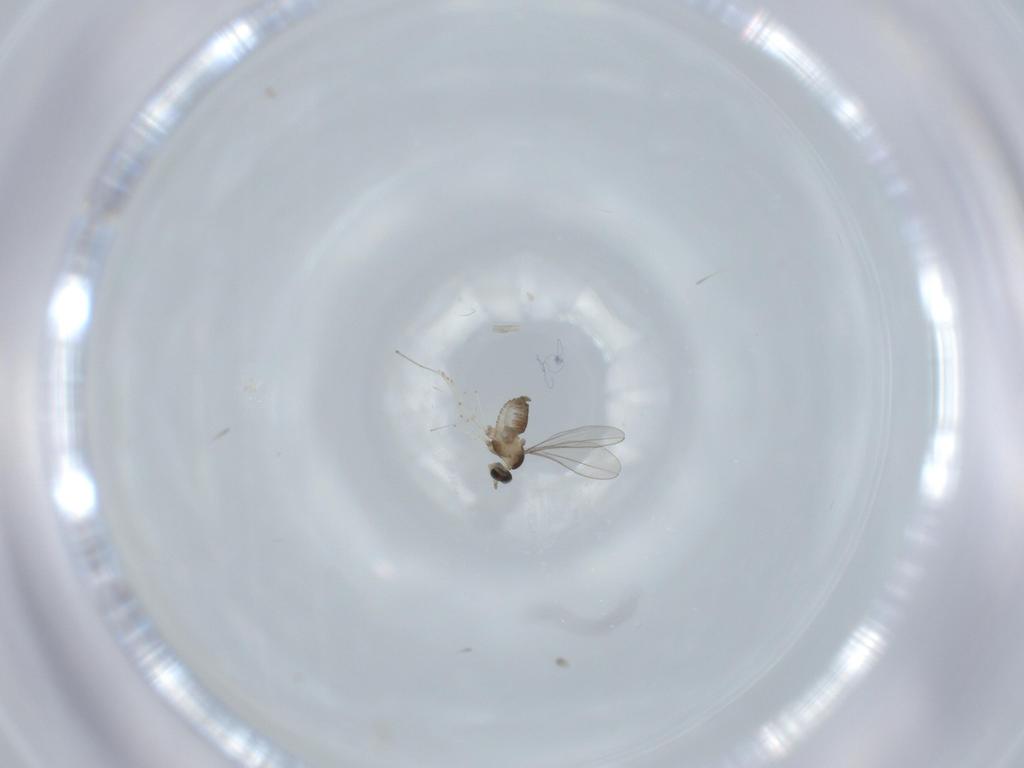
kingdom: Animalia
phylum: Arthropoda
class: Insecta
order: Diptera
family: Cecidomyiidae
